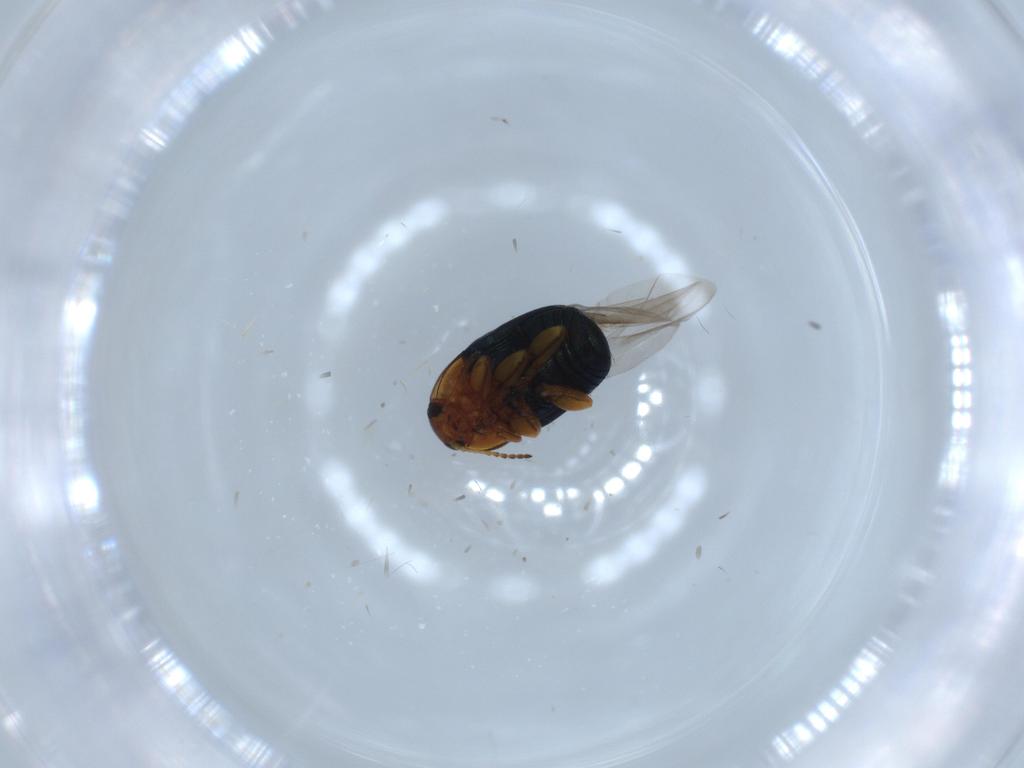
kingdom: Animalia
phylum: Arthropoda
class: Insecta
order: Coleoptera
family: Chrysomelidae
